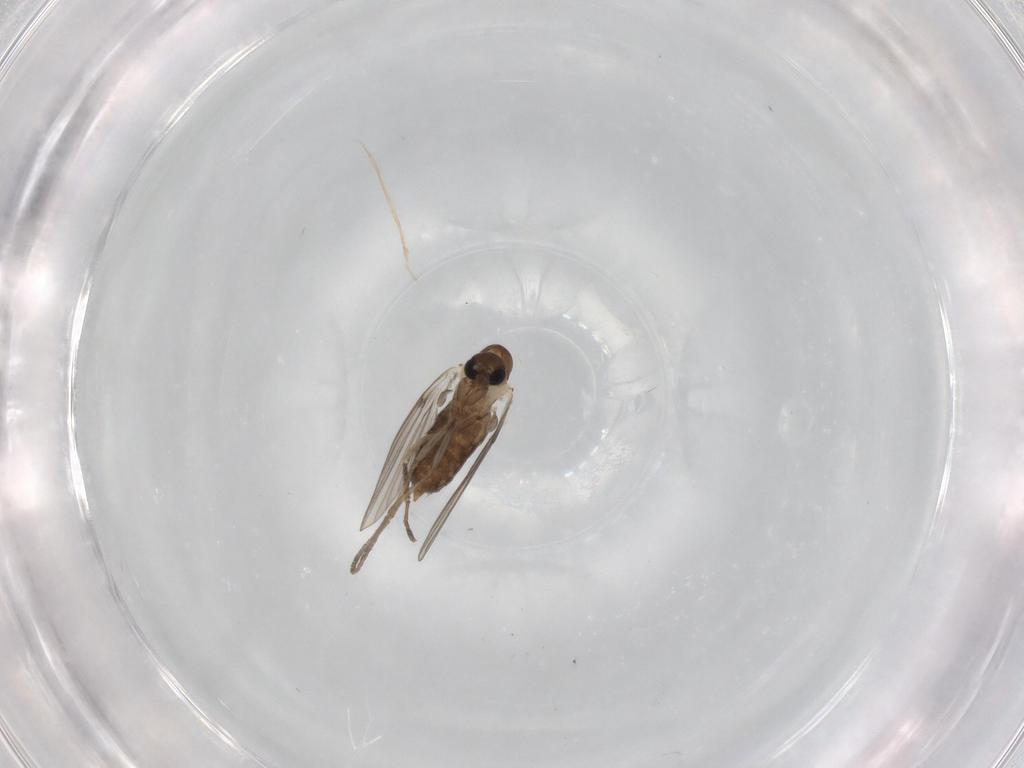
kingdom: Animalia
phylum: Arthropoda
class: Insecta
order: Diptera
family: Psychodidae
